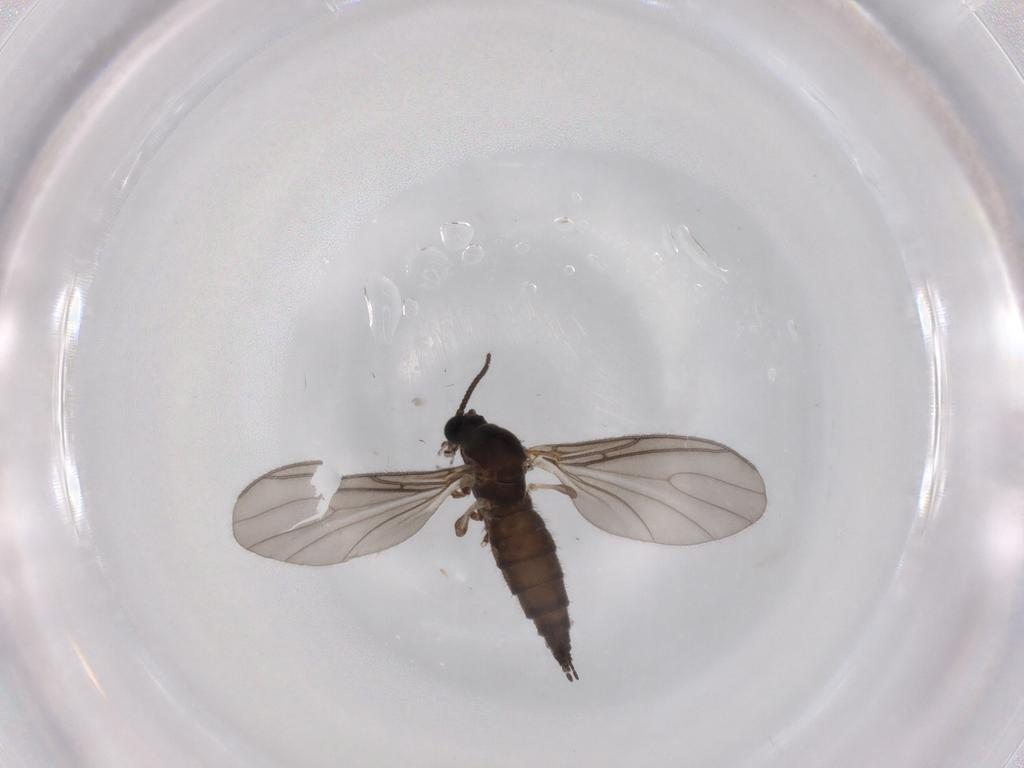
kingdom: Animalia
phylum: Arthropoda
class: Insecta
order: Diptera
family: Sciaridae
